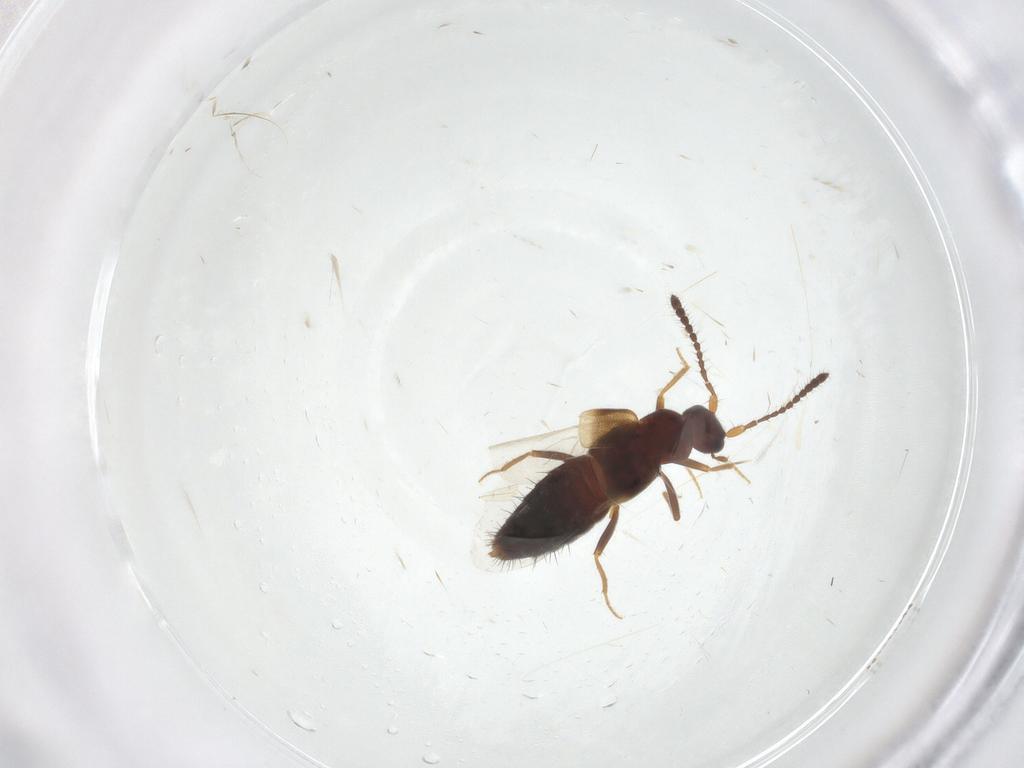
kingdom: Animalia
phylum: Arthropoda
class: Insecta
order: Coleoptera
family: Staphylinidae
